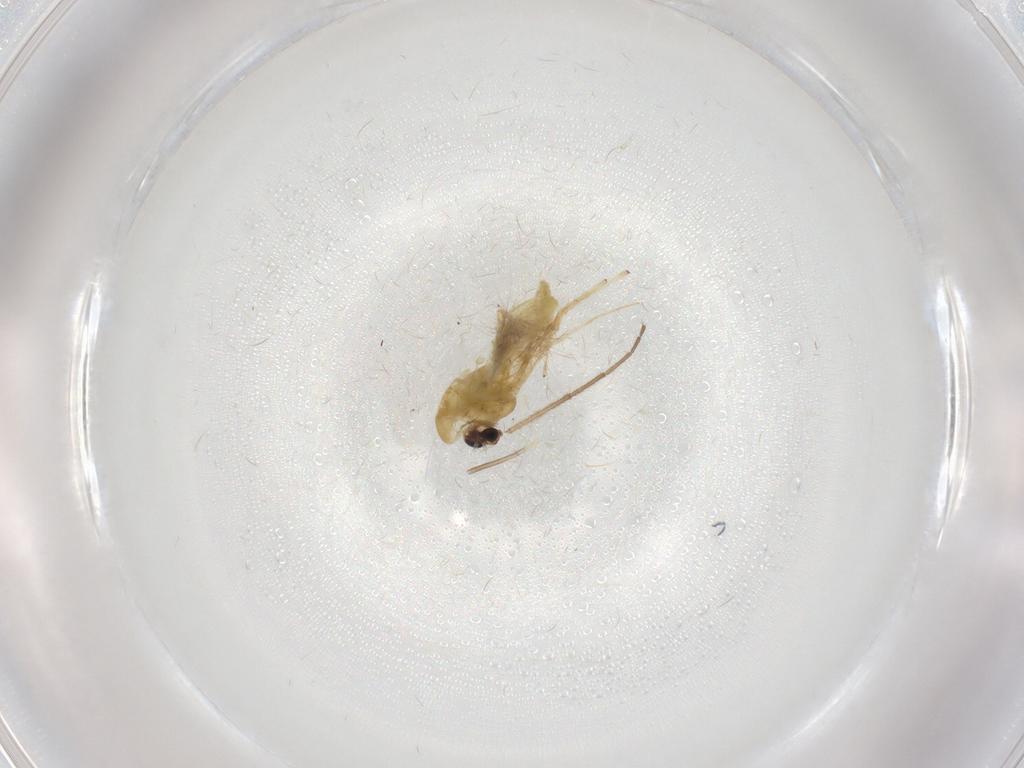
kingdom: Animalia
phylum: Arthropoda
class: Insecta
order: Diptera
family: Chironomidae
